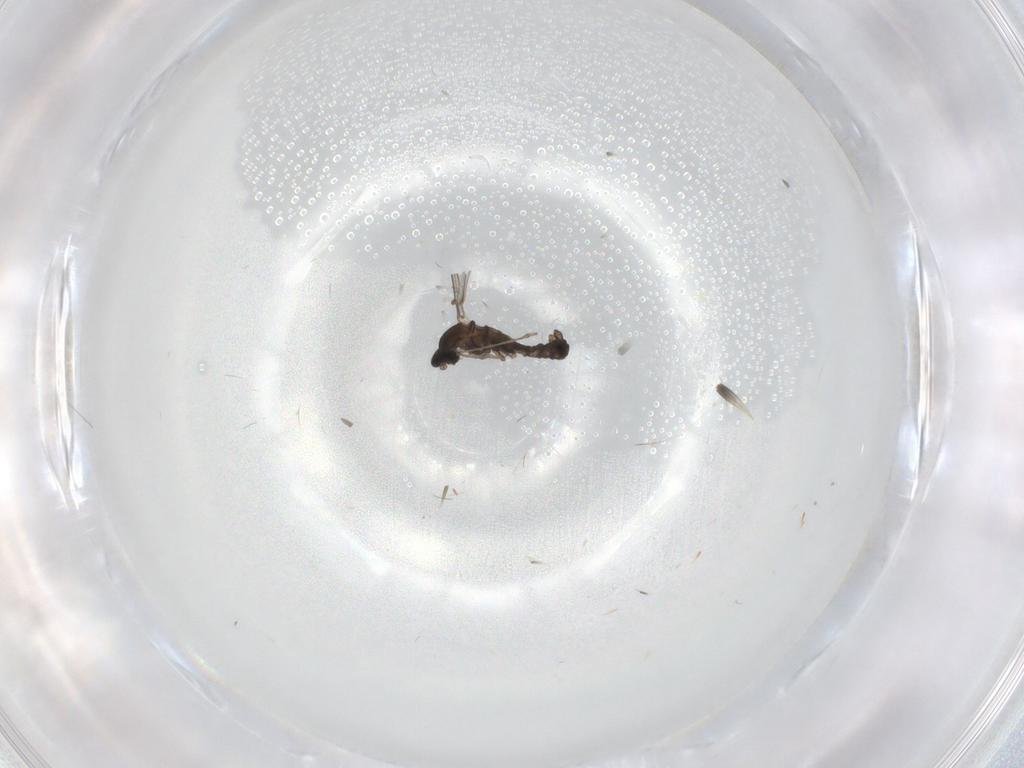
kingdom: Animalia
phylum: Arthropoda
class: Insecta
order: Diptera
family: Cecidomyiidae
